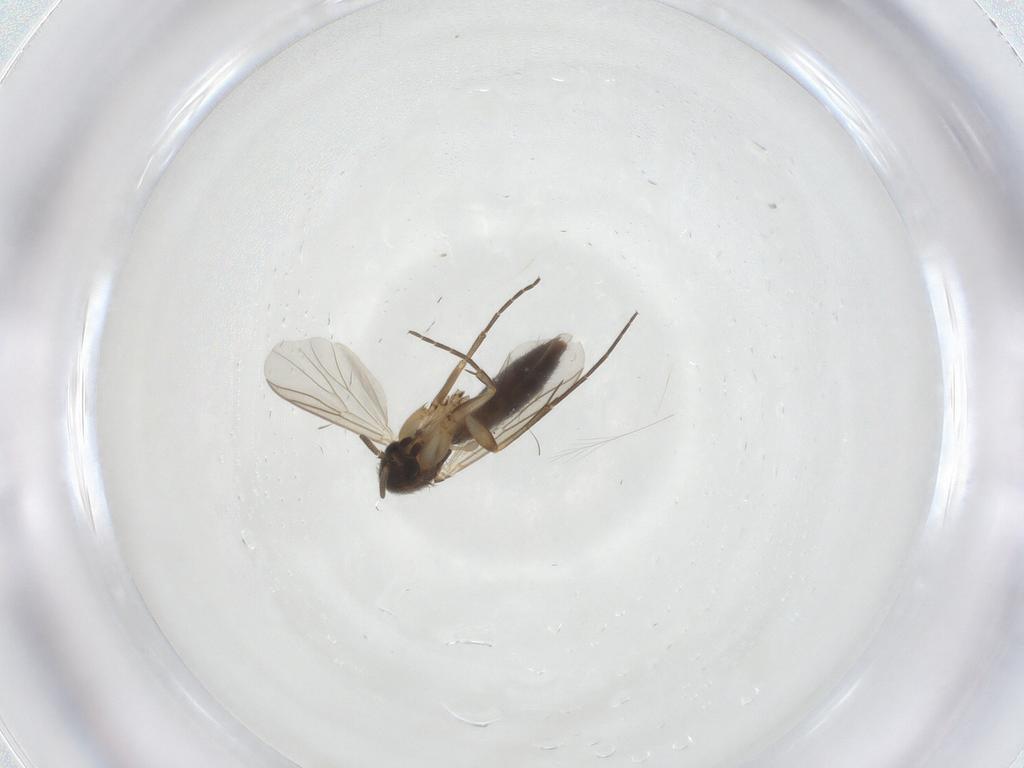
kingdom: Animalia
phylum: Arthropoda
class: Insecta
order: Diptera
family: Mycetophilidae
